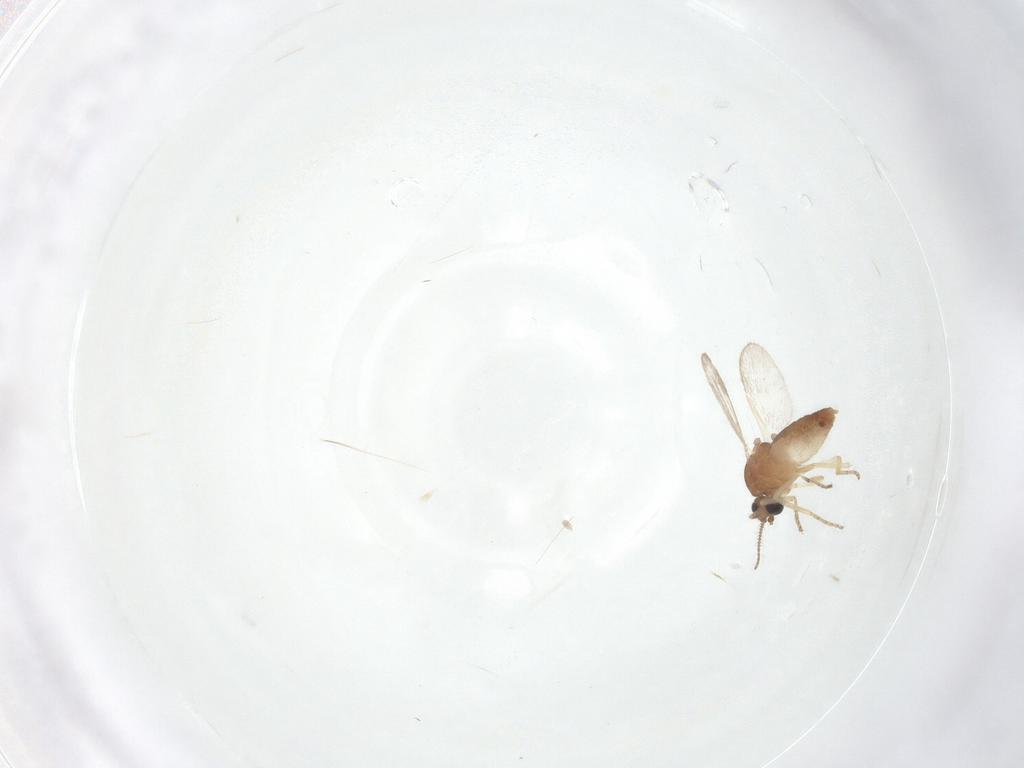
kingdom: Animalia
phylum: Arthropoda
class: Insecta
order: Diptera
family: Ceratopogonidae
